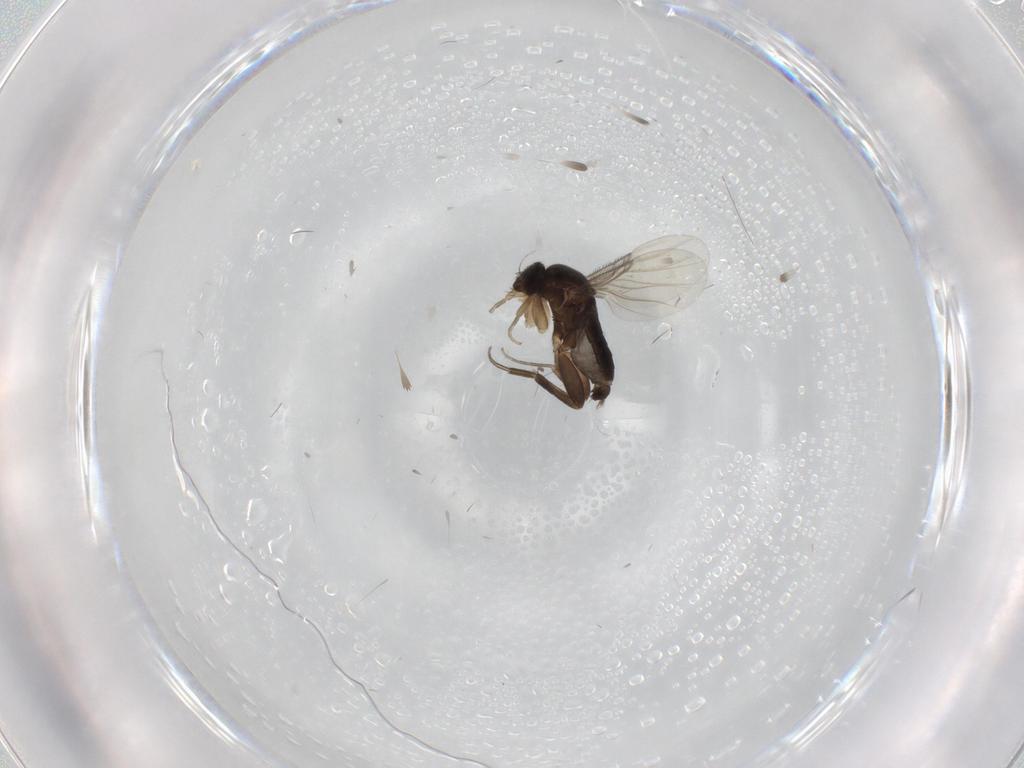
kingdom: Animalia
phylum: Arthropoda
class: Insecta
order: Diptera
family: Phoridae
